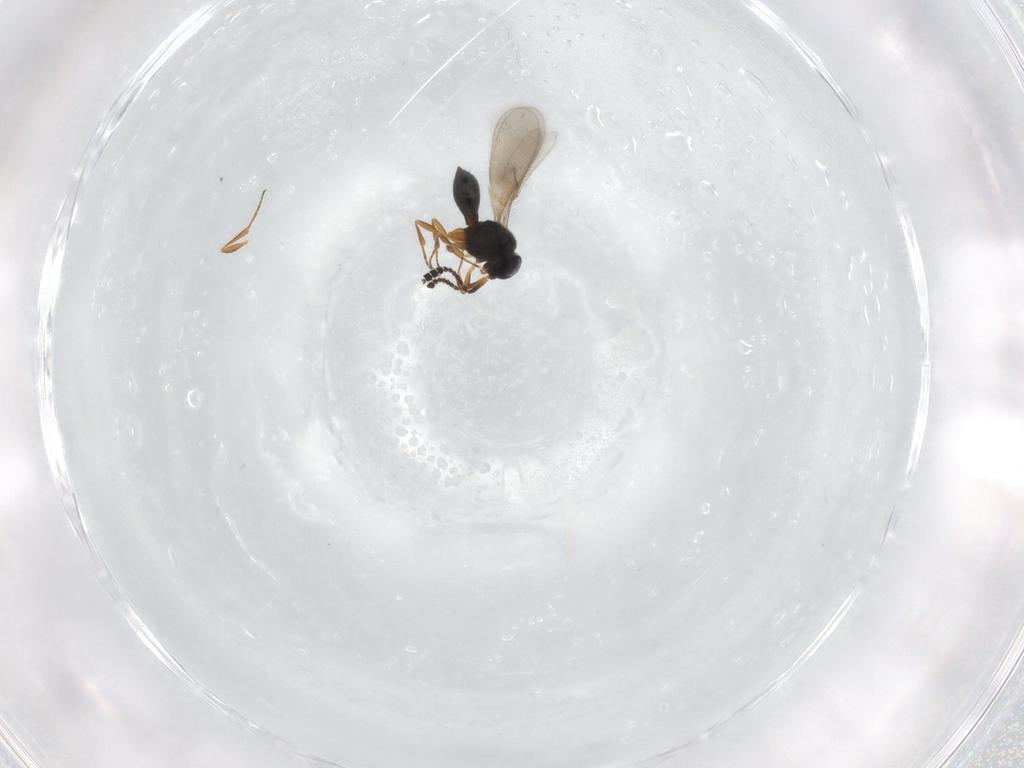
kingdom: Animalia
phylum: Arthropoda
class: Insecta
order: Hymenoptera
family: Scelionidae
